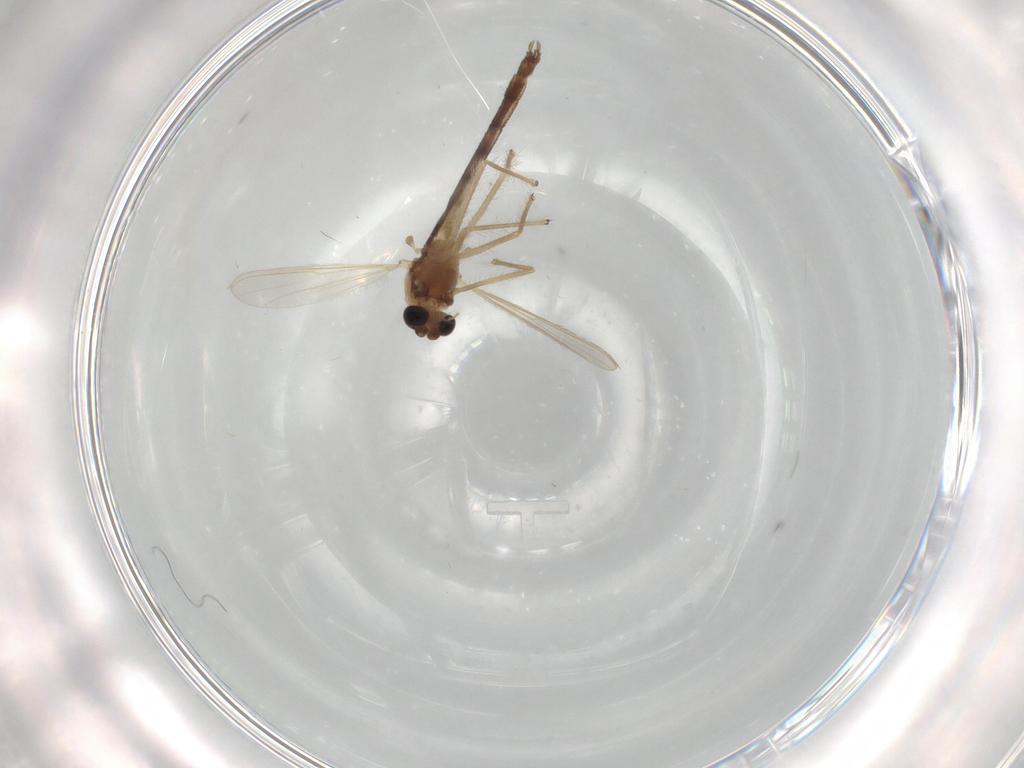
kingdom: Animalia
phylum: Arthropoda
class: Insecta
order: Diptera
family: Chironomidae
